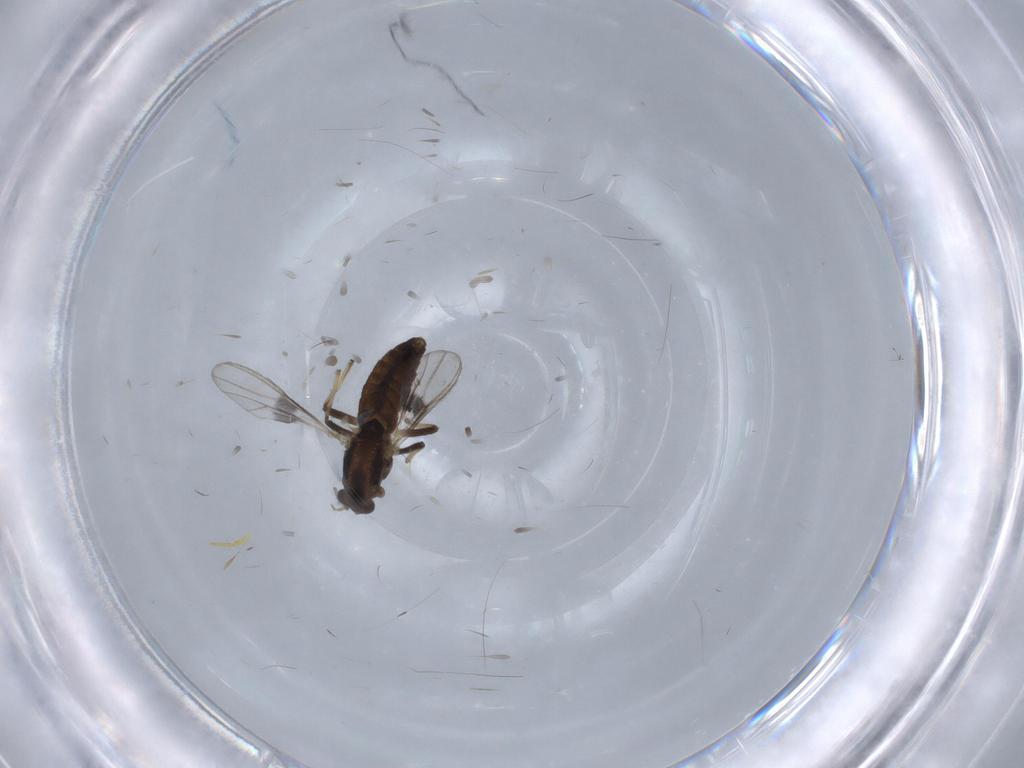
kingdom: Animalia
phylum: Arthropoda
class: Insecta
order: Diptera
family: Chironomidae
